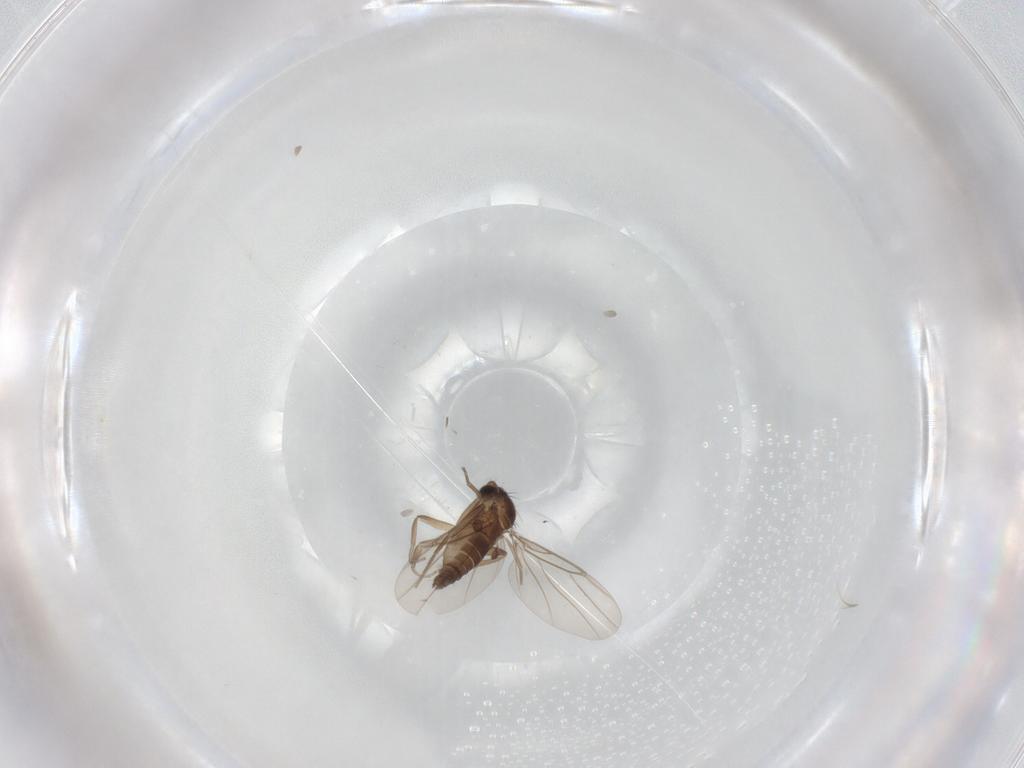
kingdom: Animalia
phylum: Arthropoda
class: Insecta
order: Diptera
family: Phoridae
